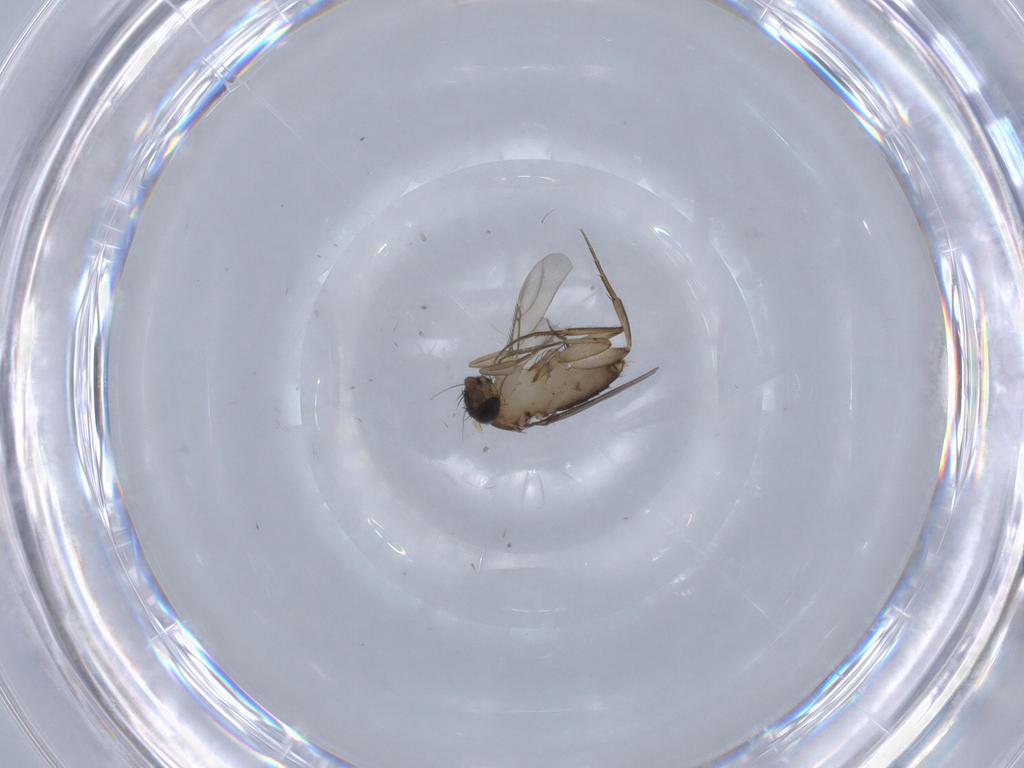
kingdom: Animalia
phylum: Arthropoda
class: Insecta
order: Diptera
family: Phoridae
